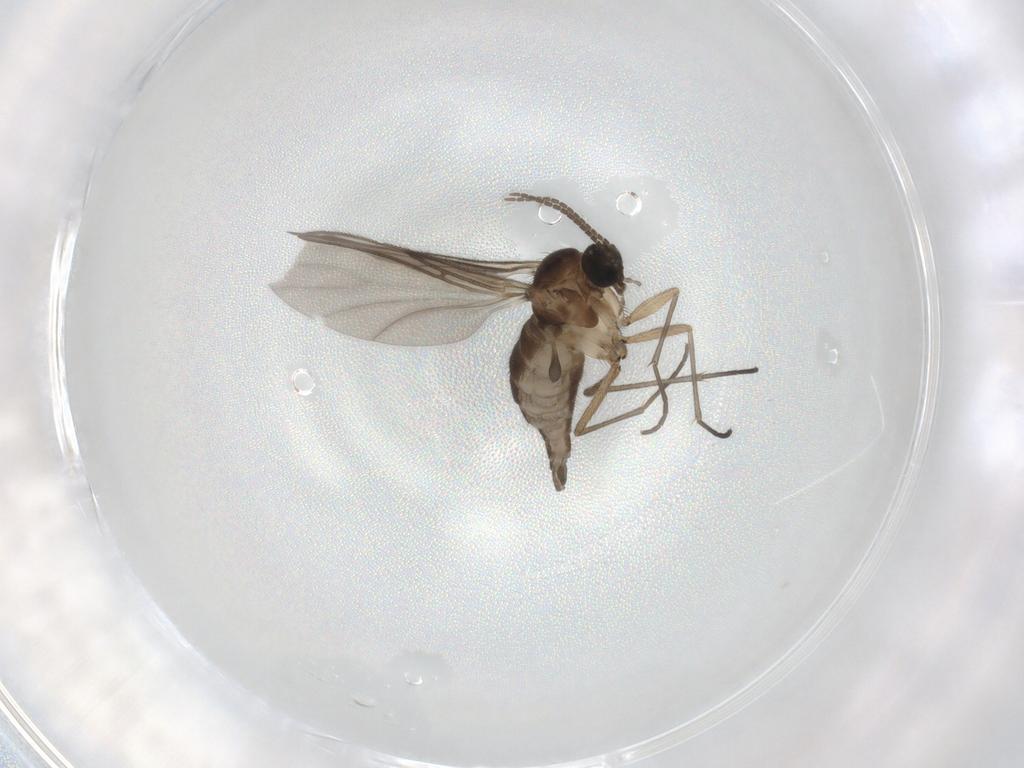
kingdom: Animalia
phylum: Arthropoda
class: Insecta
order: Diptera
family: Sciaridae
